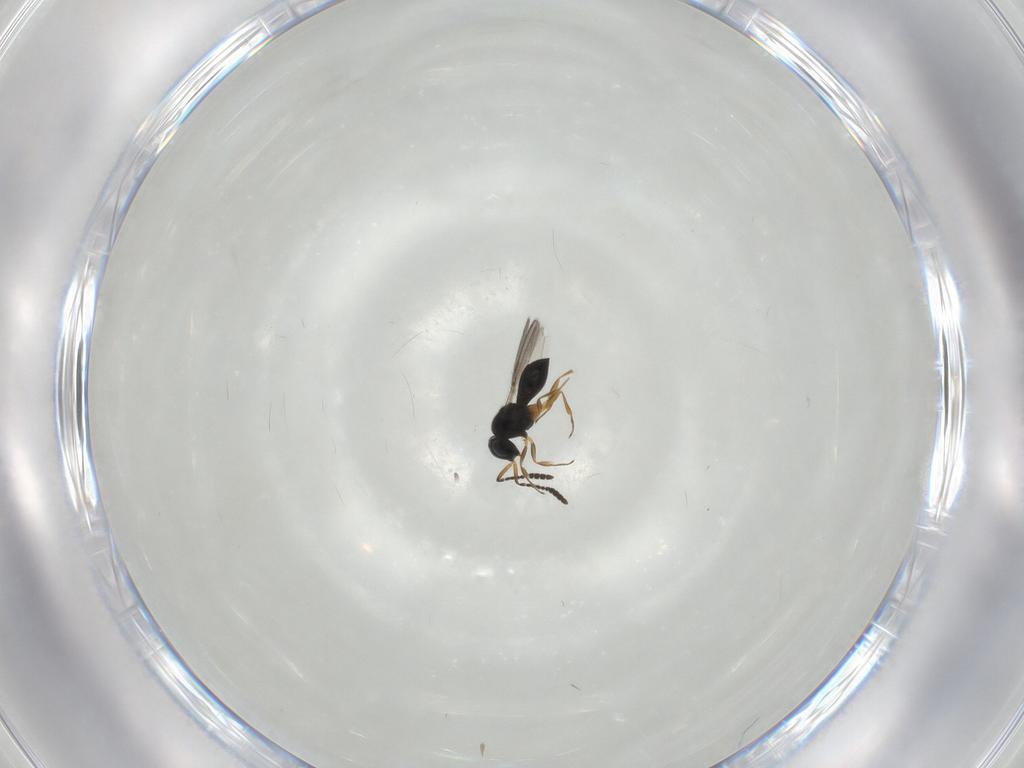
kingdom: Animalia
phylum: Arthropoda
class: Insecta
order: Hymenoptera
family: Scelionidae
